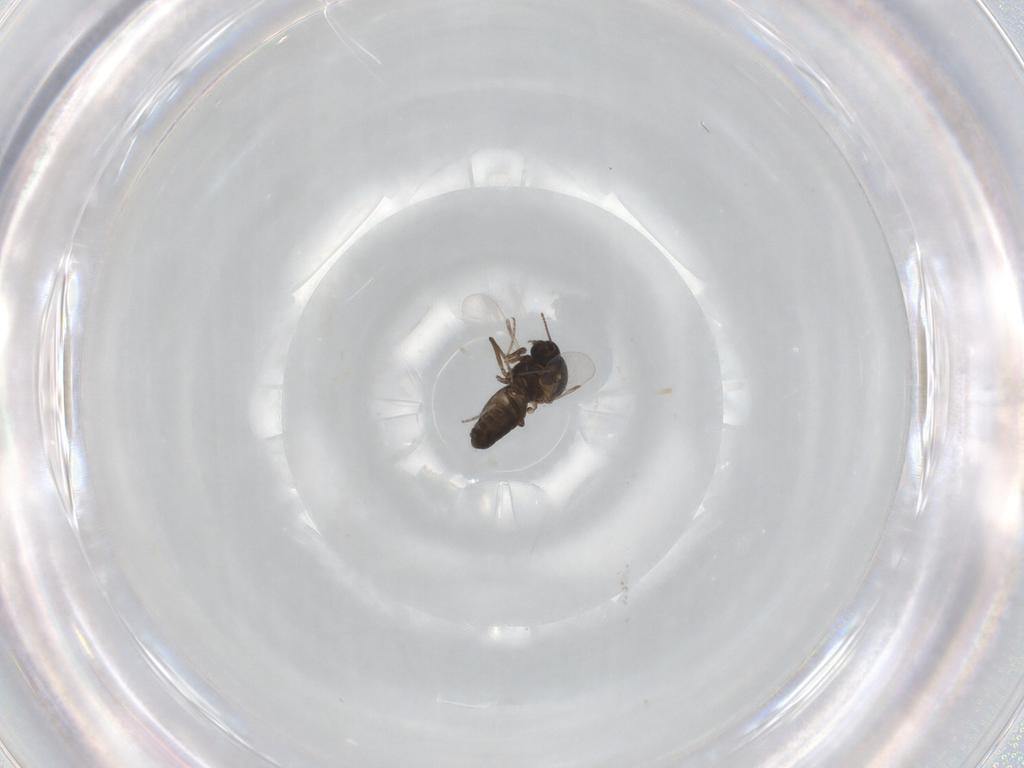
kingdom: Animalia
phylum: Arthropoda
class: Insecta
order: Diptera
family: Ceratopogonidae
